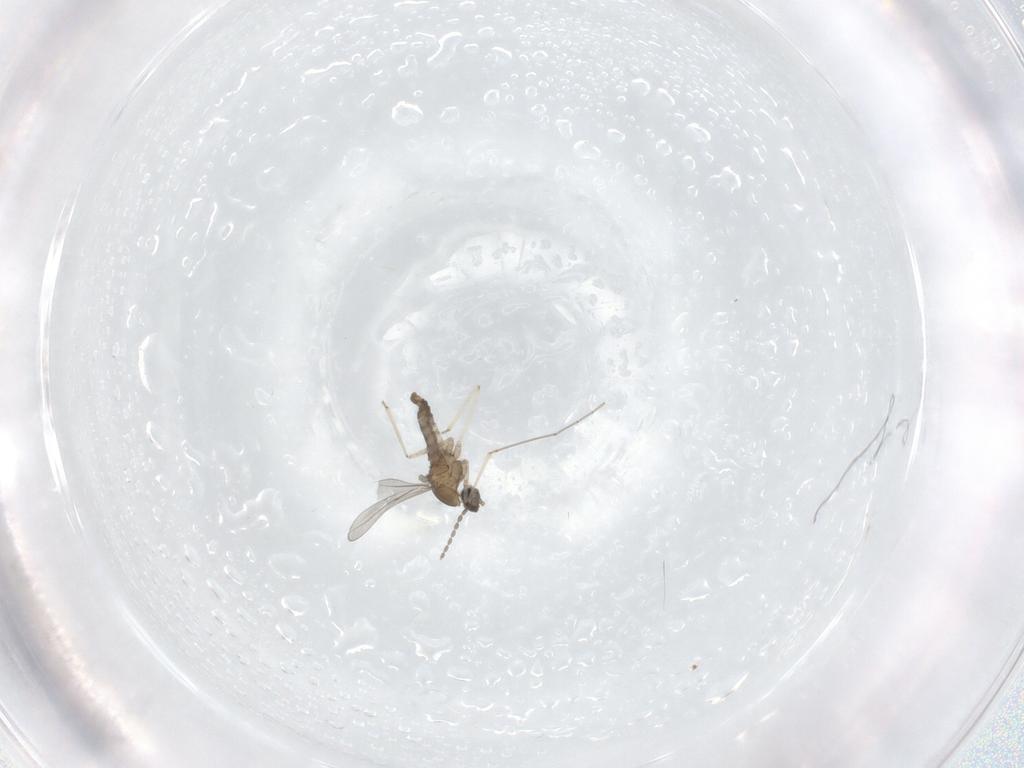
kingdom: Animalia
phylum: Arthropoda
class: Insecta
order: Diptera
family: Cecidomyiidae
